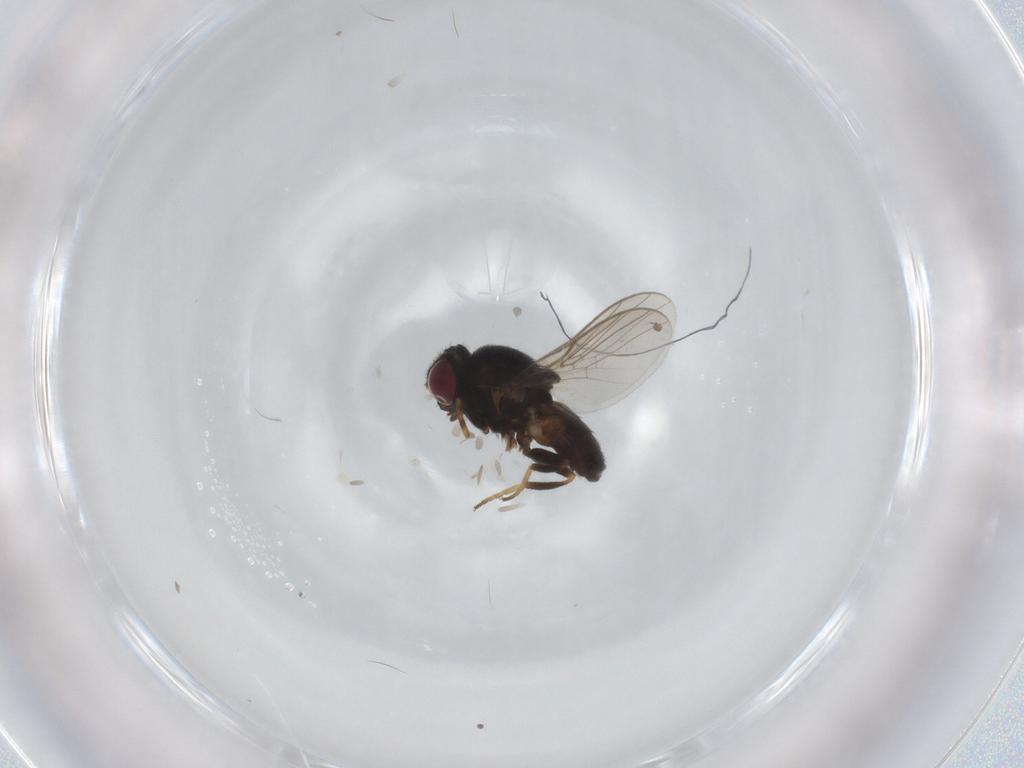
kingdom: Animalia
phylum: Arthropoda
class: Insecta
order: Diptera
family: Chloropidae
